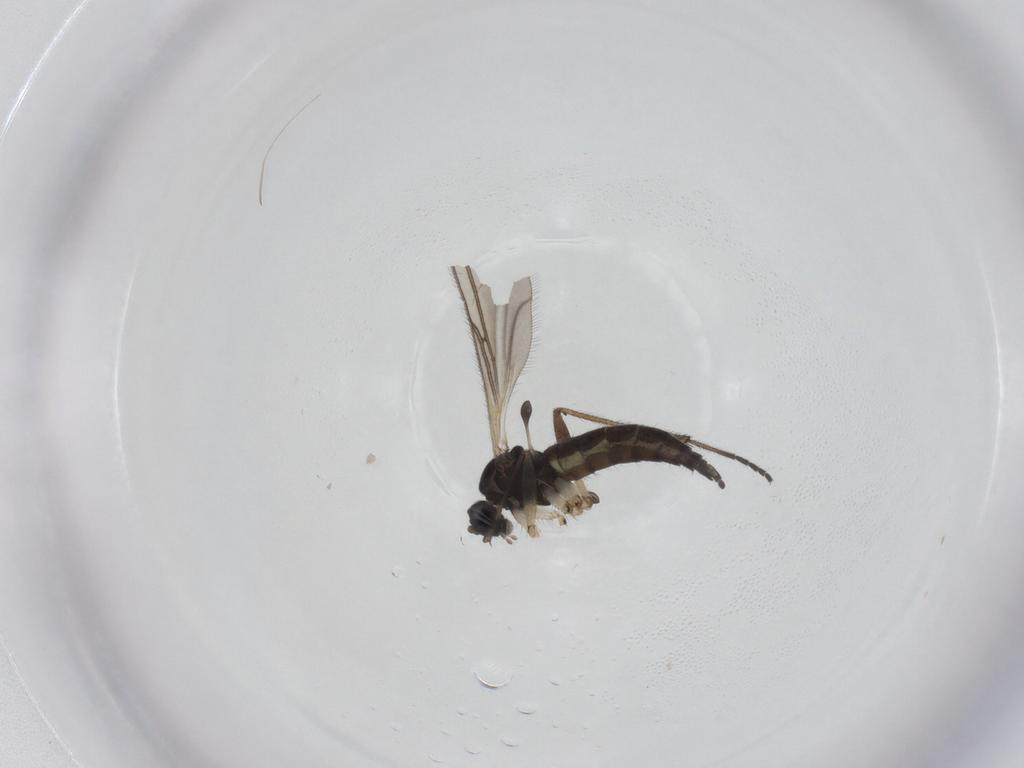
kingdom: Animalia
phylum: Arthropoda
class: Insecta
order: Diptera
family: Sciaridae
